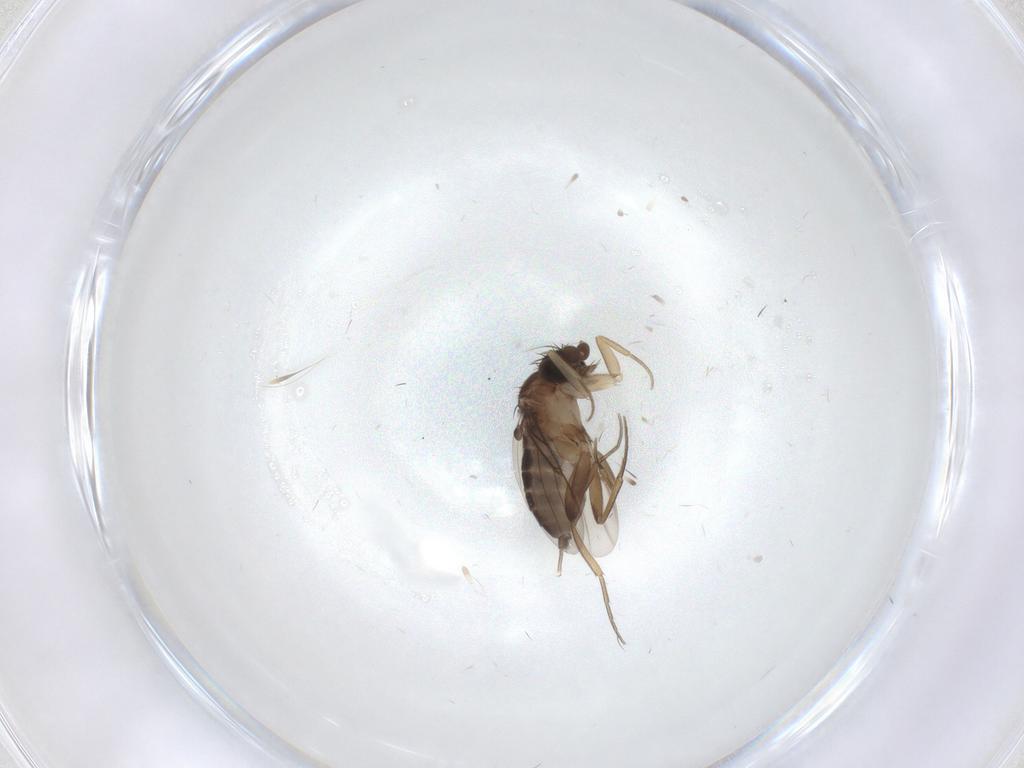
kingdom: Animalia
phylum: Arthropoda
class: Insecta
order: Diptera
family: Phoridae
